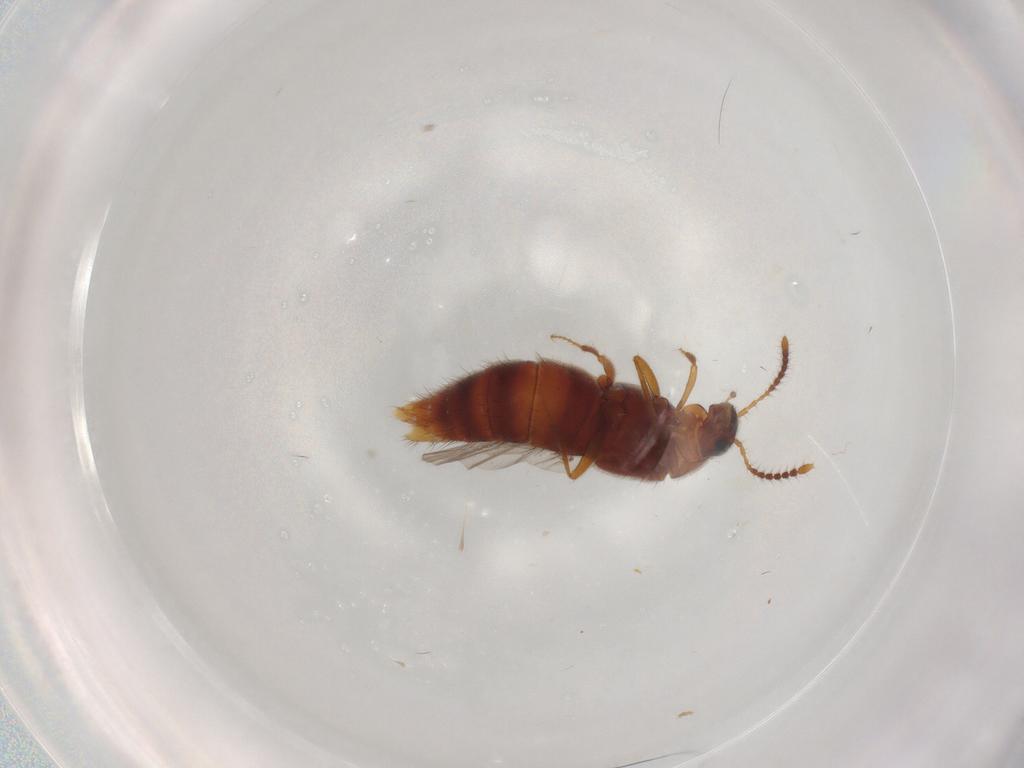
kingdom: Animalia
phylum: Arthropoda
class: Insecta
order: Coleoptera
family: Staphylinidae
